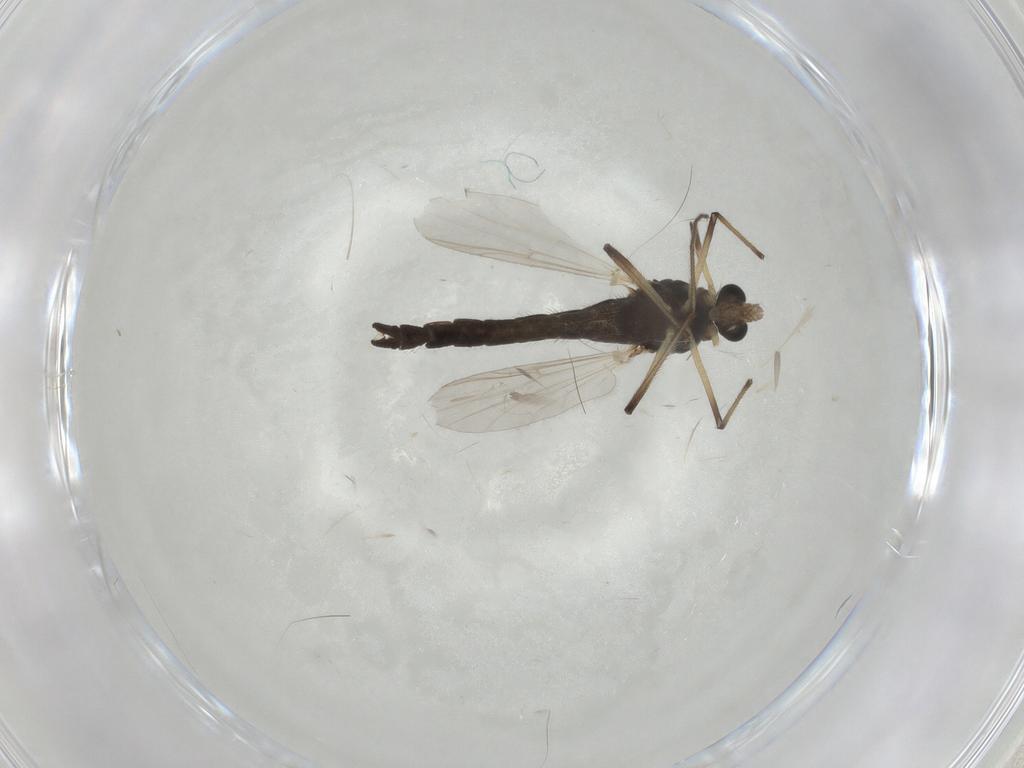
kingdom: Animalia
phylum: Arthropoda
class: Insecta
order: Diptera
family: Chironomidae
